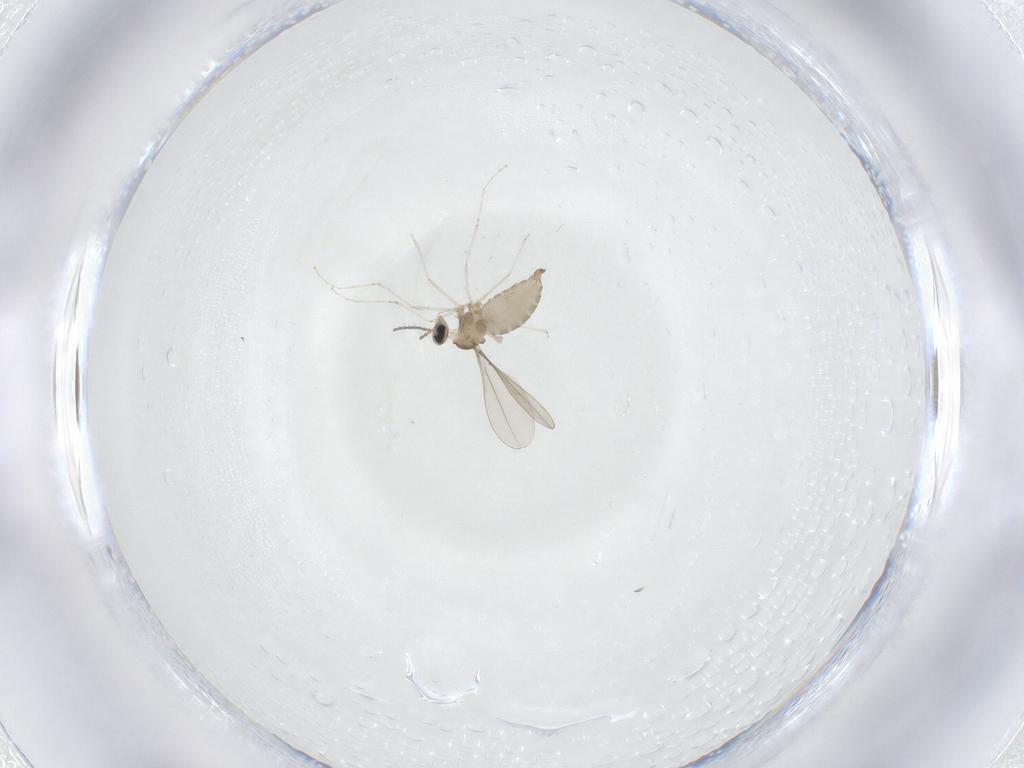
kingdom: Animalia
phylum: Arthropoda
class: Insecta
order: Diptera
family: Cecidomyiidae
